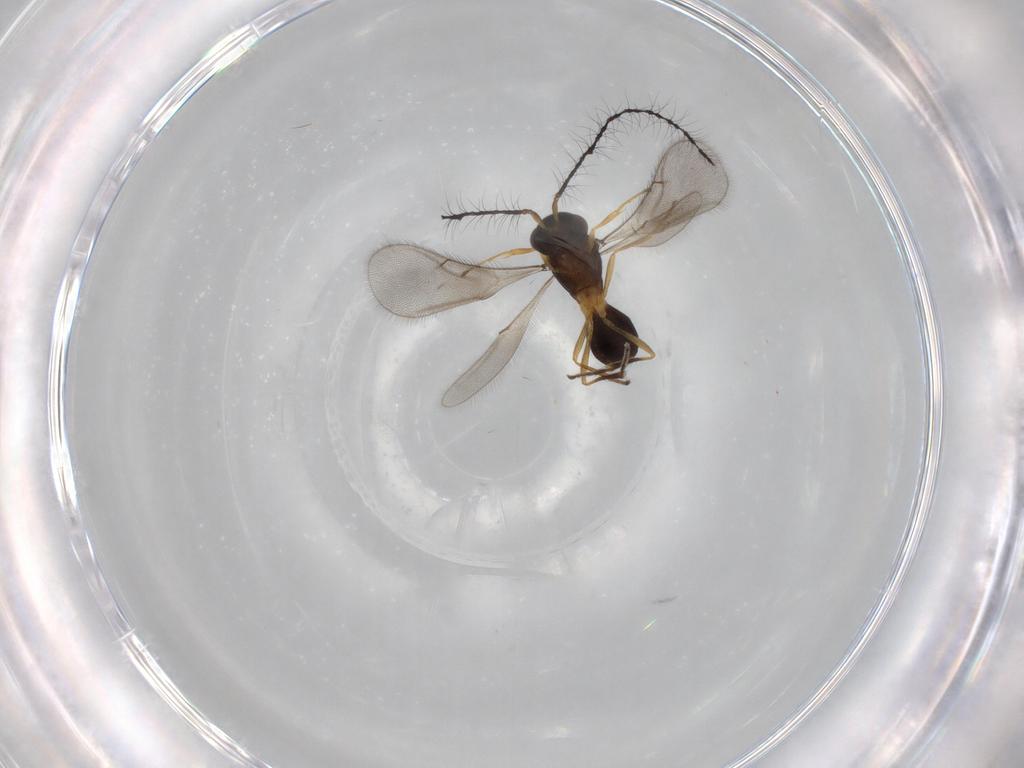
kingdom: Animalia
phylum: Arthropoda
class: Insecta
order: Hymenoptera
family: Scelionidae
